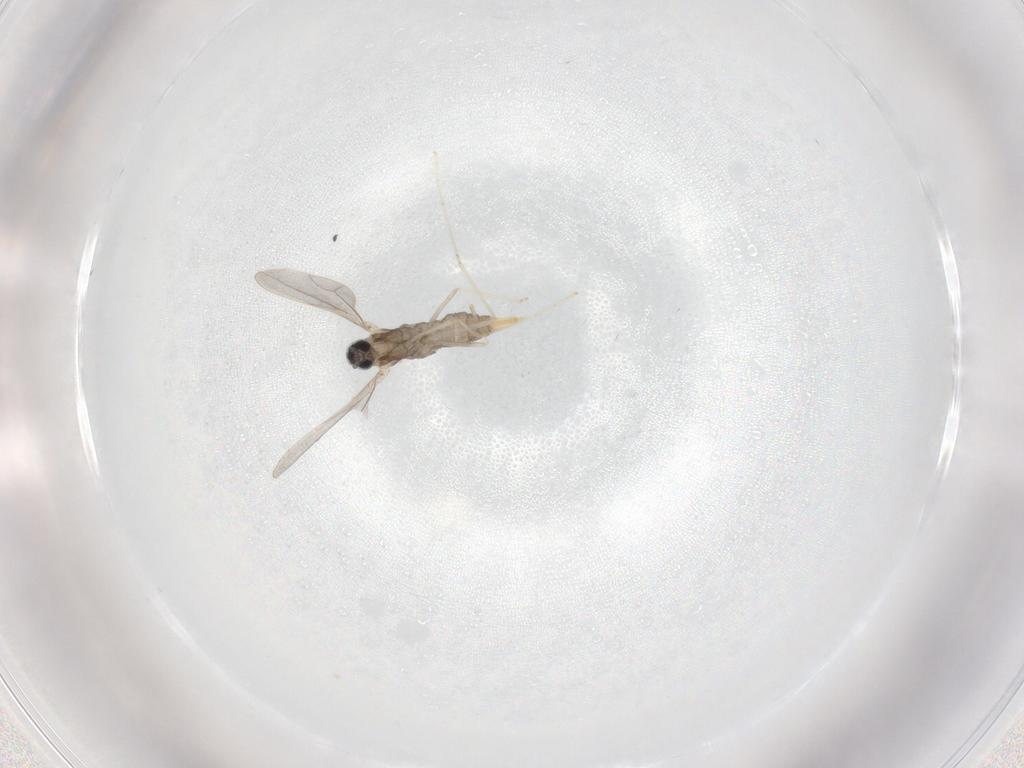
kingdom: Animalia
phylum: Arthropoda
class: Insecta
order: Diptera
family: Cecidomyiidae
